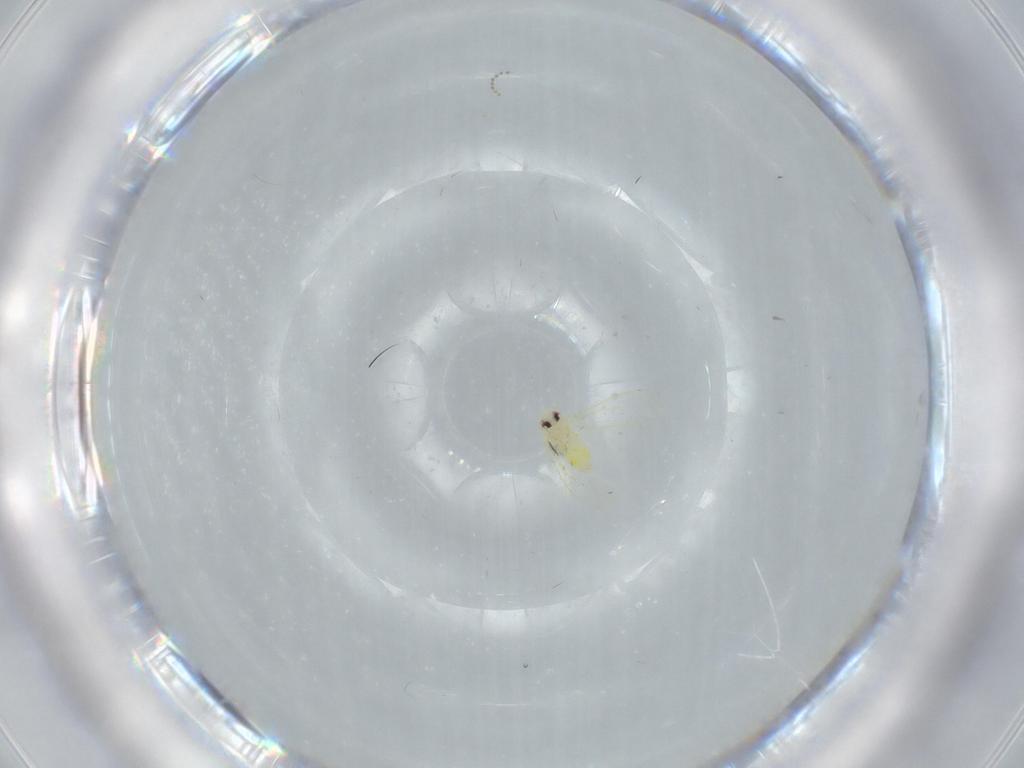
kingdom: Animalia
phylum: Arthropoda
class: Insecta
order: Hemiptera
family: Aleyrodidae
